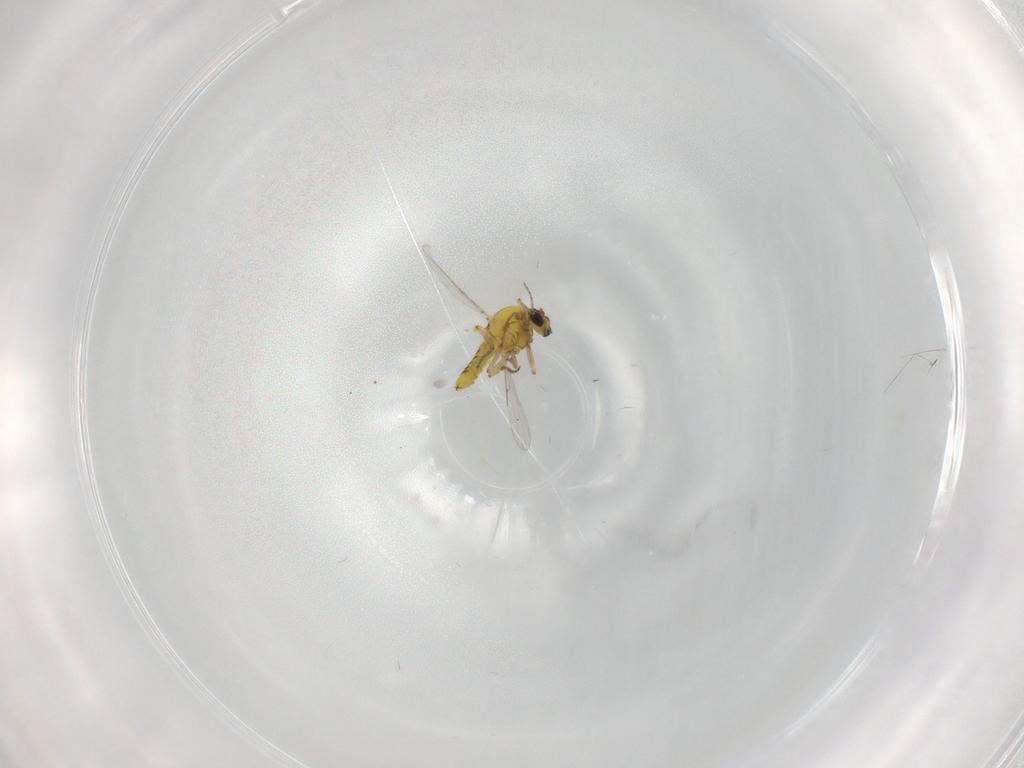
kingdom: Animalia
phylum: Arthropoda
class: Insecta
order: Diptera
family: Ceratopogonidae
